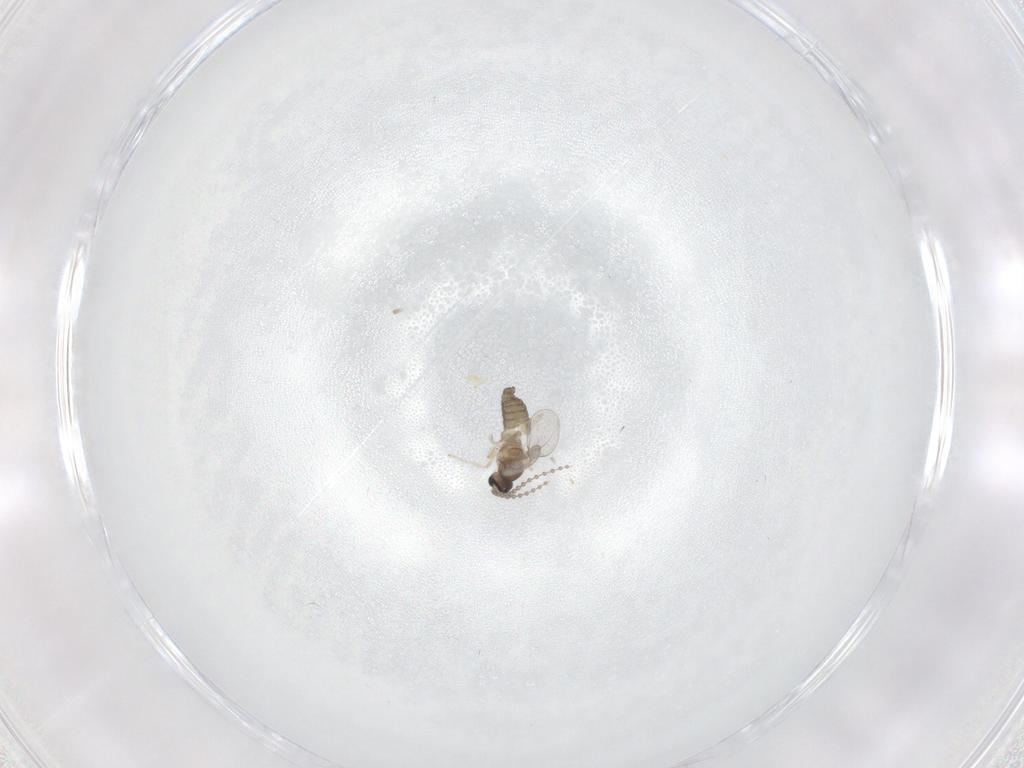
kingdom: Animalia
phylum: Arthropoda
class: Insecta
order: Diptera
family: Cecidomyiidae
